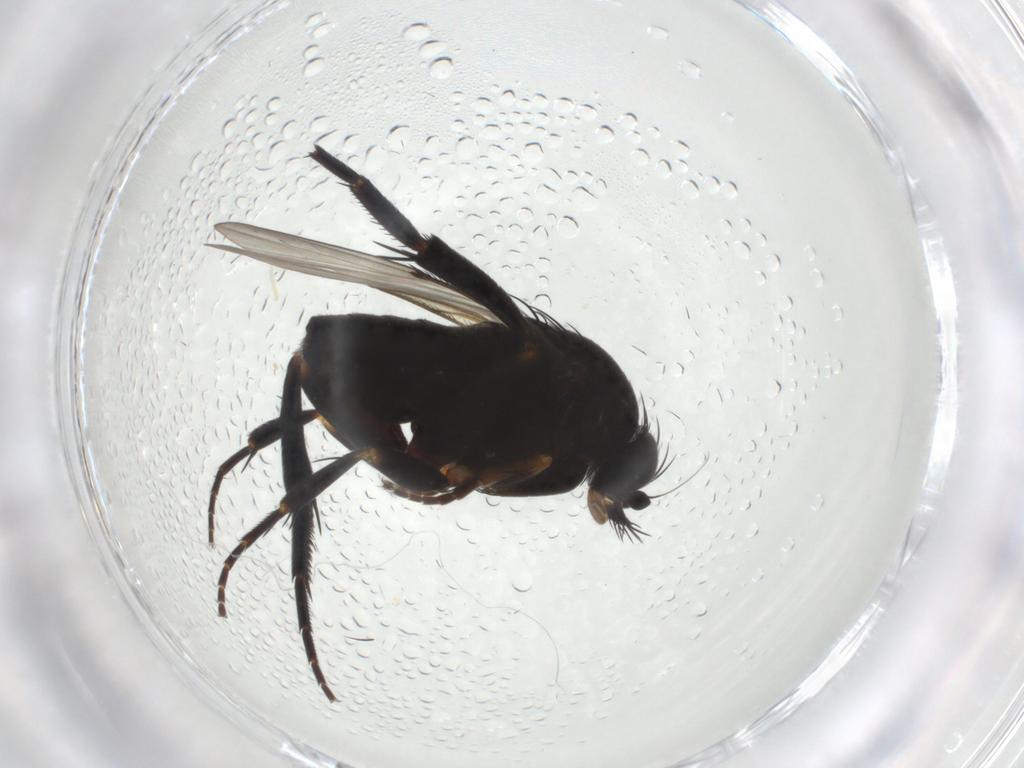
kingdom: Animalia
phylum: Arthropoda
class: Insecta
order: Diptera
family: Phoridae
